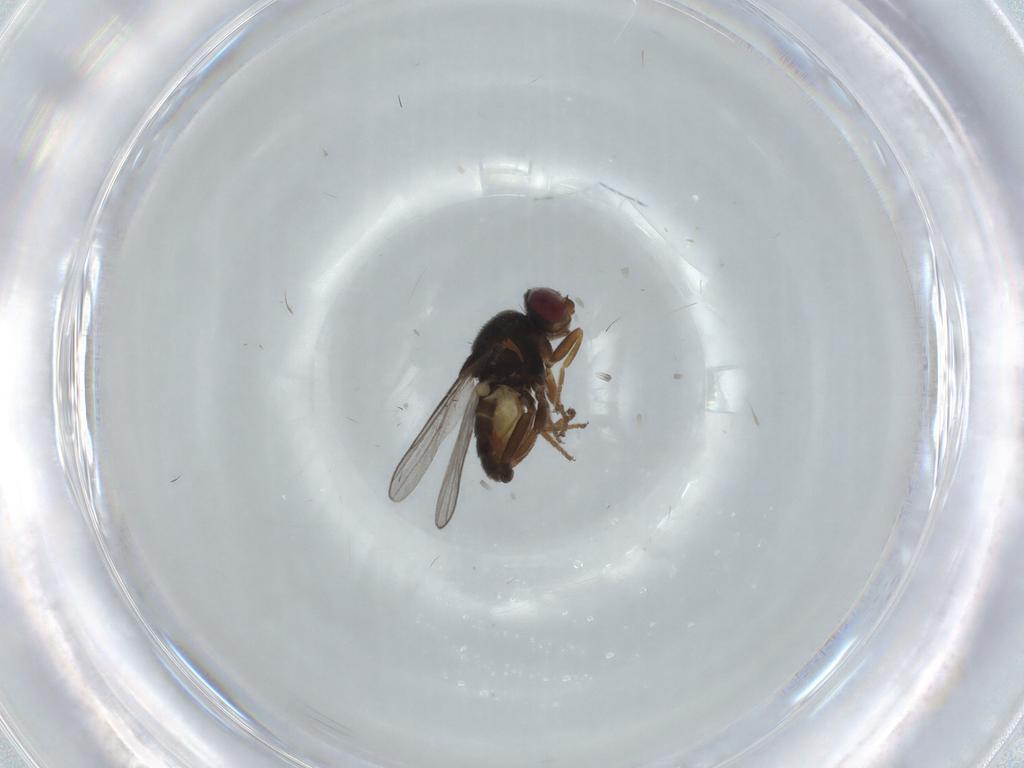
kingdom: Animalia
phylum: Arthropoda
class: Insecta
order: Diptera
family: Chloropidae
